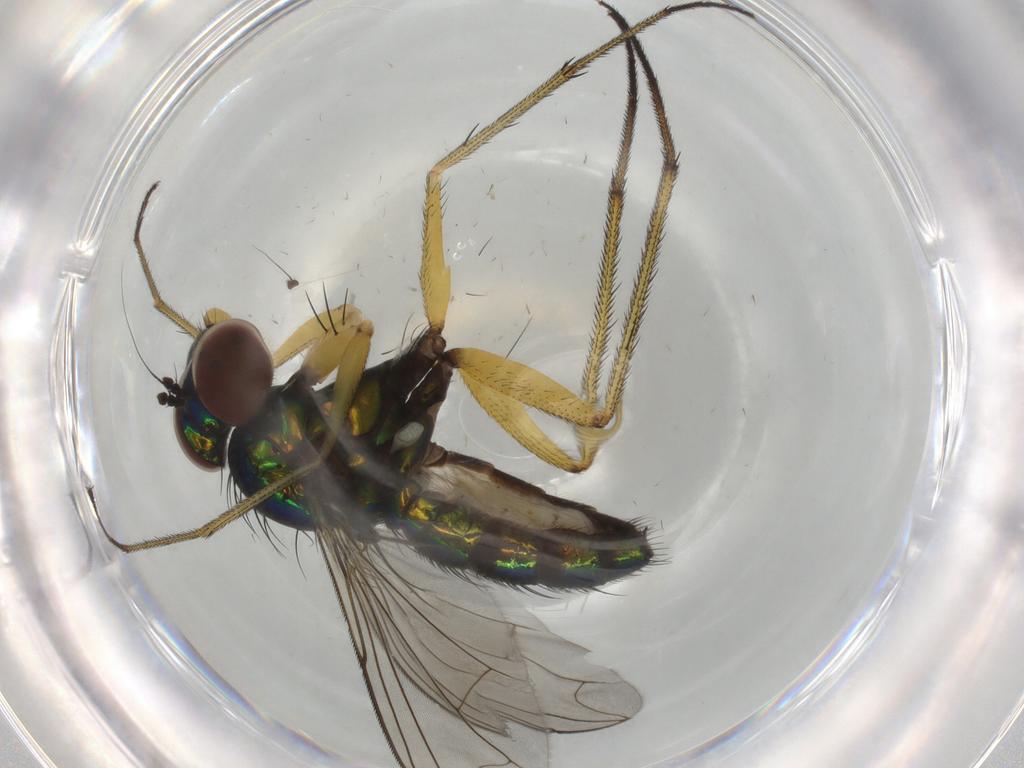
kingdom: Animalia
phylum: Arthropoda
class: Insecta
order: Diptera
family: Dolichopodidae
